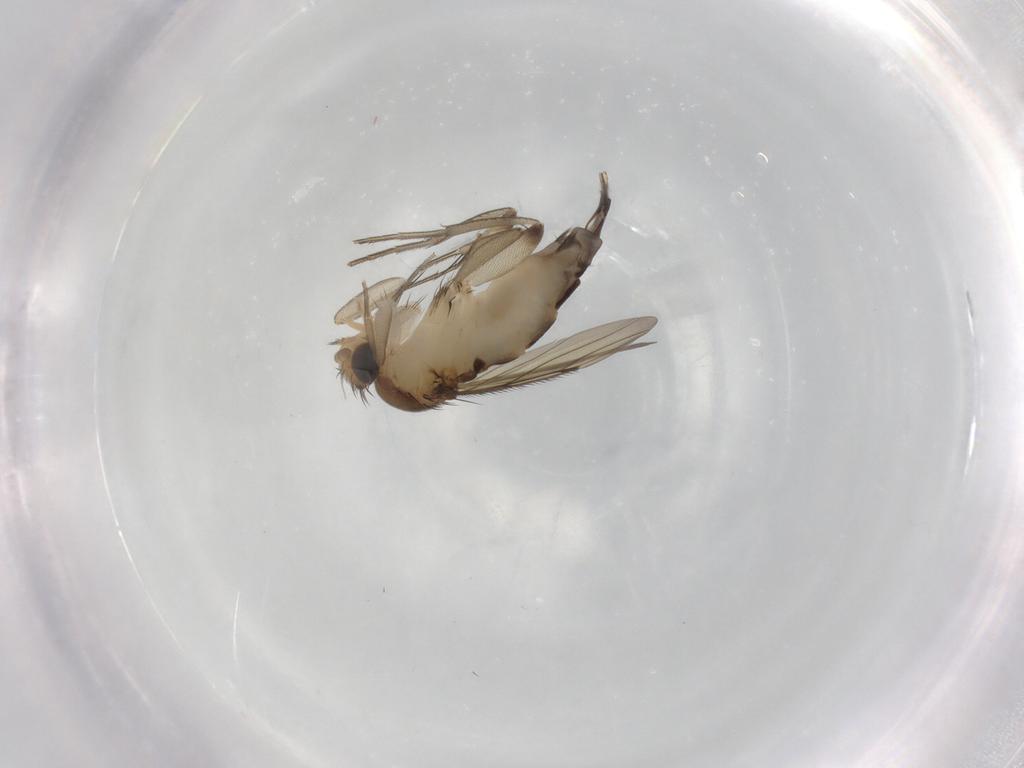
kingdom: Animalia
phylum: Arthropoda
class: Insecta
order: Diptera
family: Phoridae
